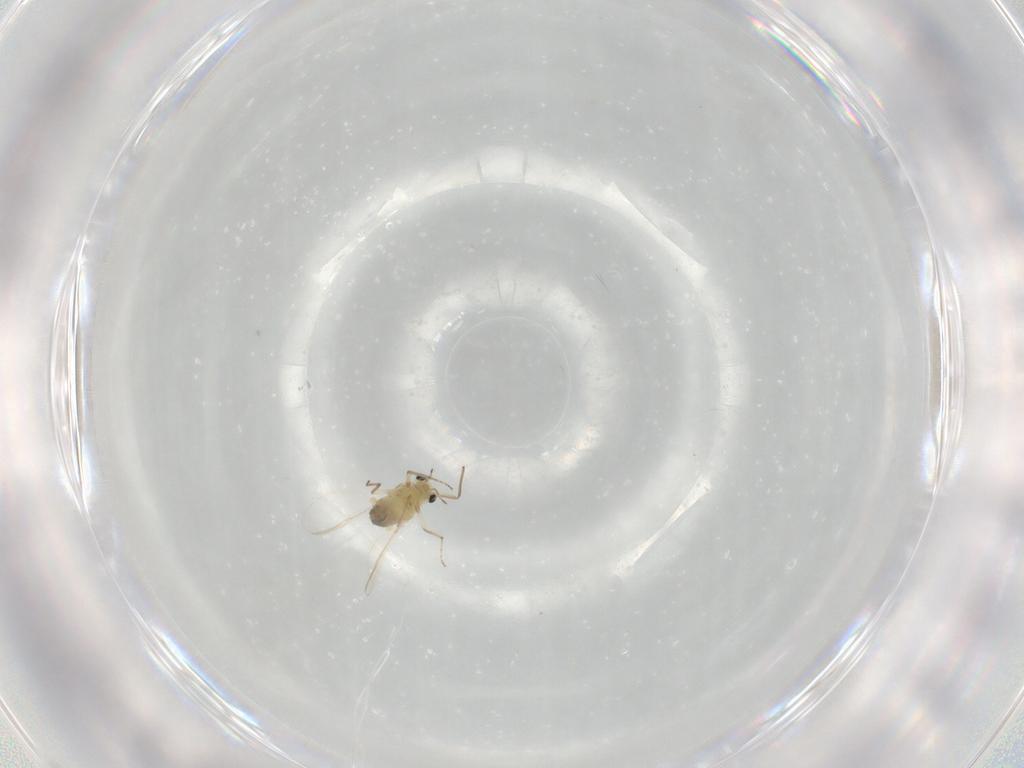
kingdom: Animalia
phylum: Arthropoda
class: Insecta
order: Diptera
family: Chironomidae
